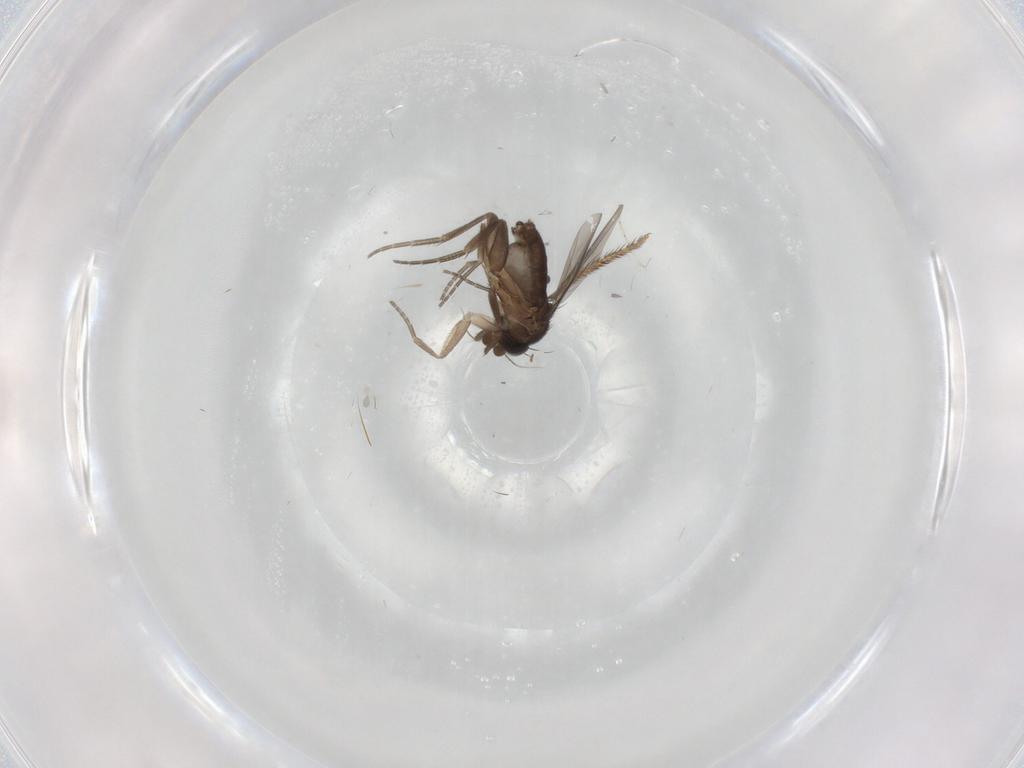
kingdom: Animalia
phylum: Arthropoda
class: Insecta
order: Diptera
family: Phoridae
